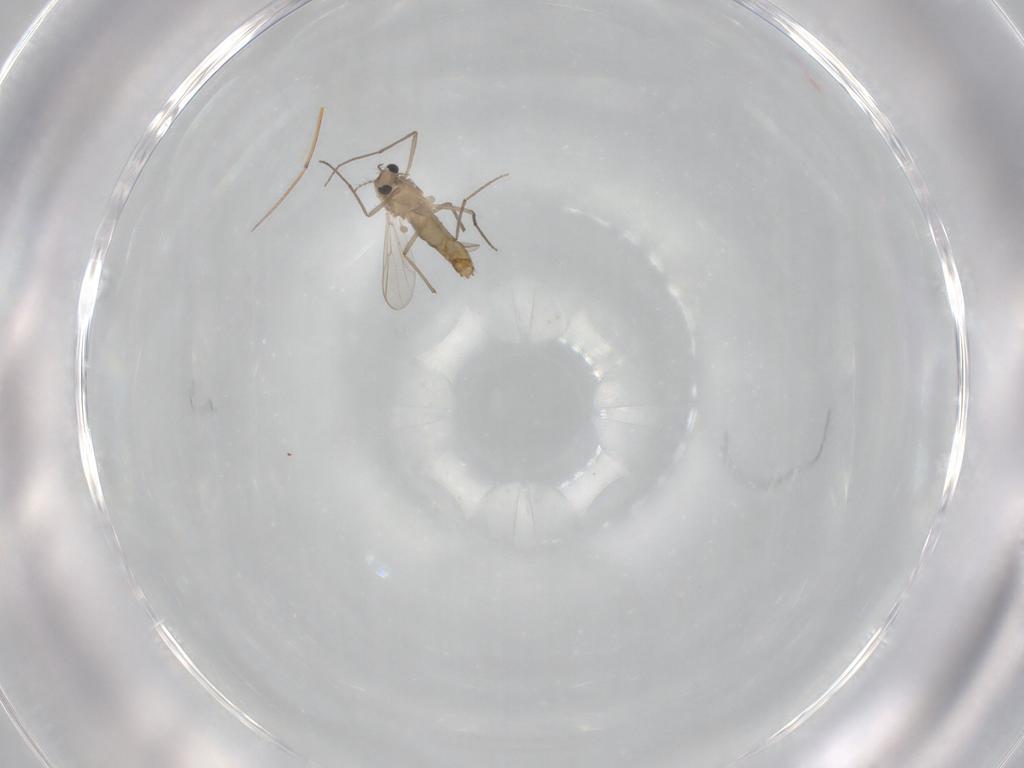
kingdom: Animalia
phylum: Arthropoda
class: Insecta
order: Diptera
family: Chironomidae
